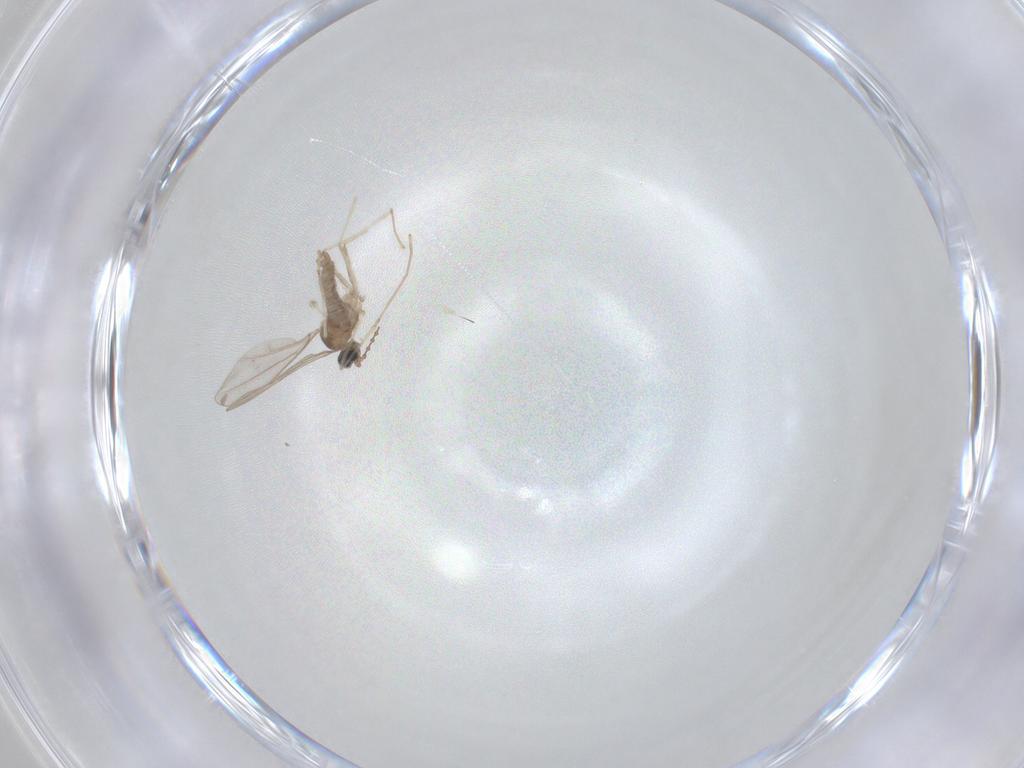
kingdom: Animalia
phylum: Arthropoda
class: Insecta
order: Diptera
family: Cecidomyiidae
